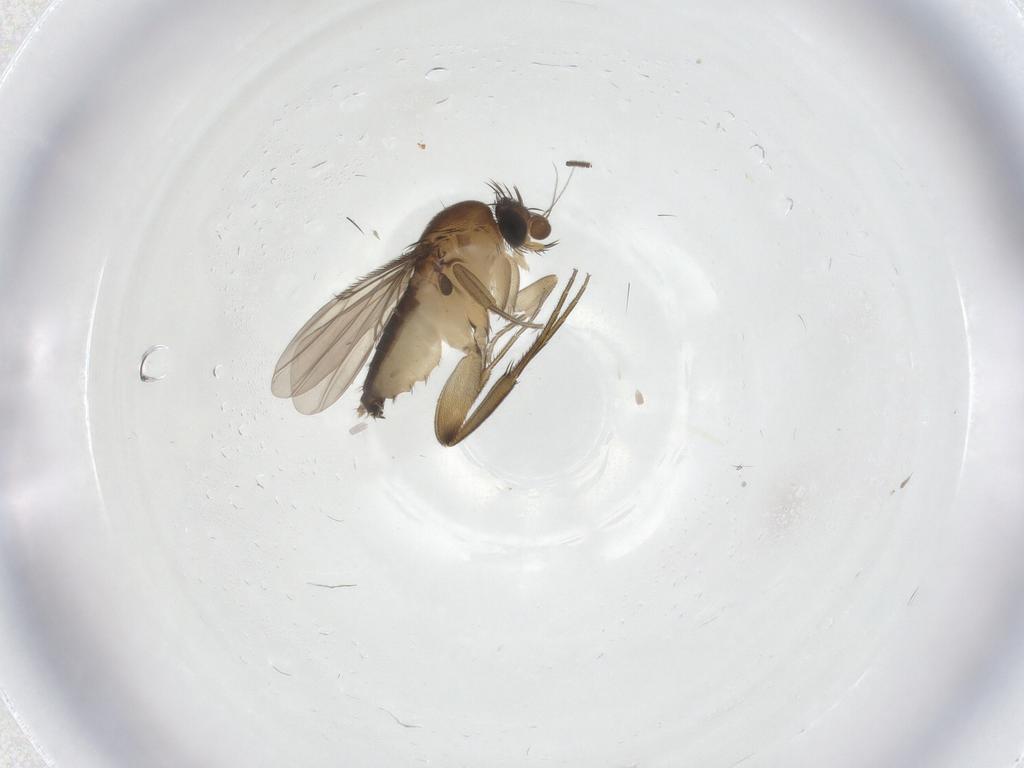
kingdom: Animalia
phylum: Arthropoda
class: Insecta
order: Diptera
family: Phoridae
